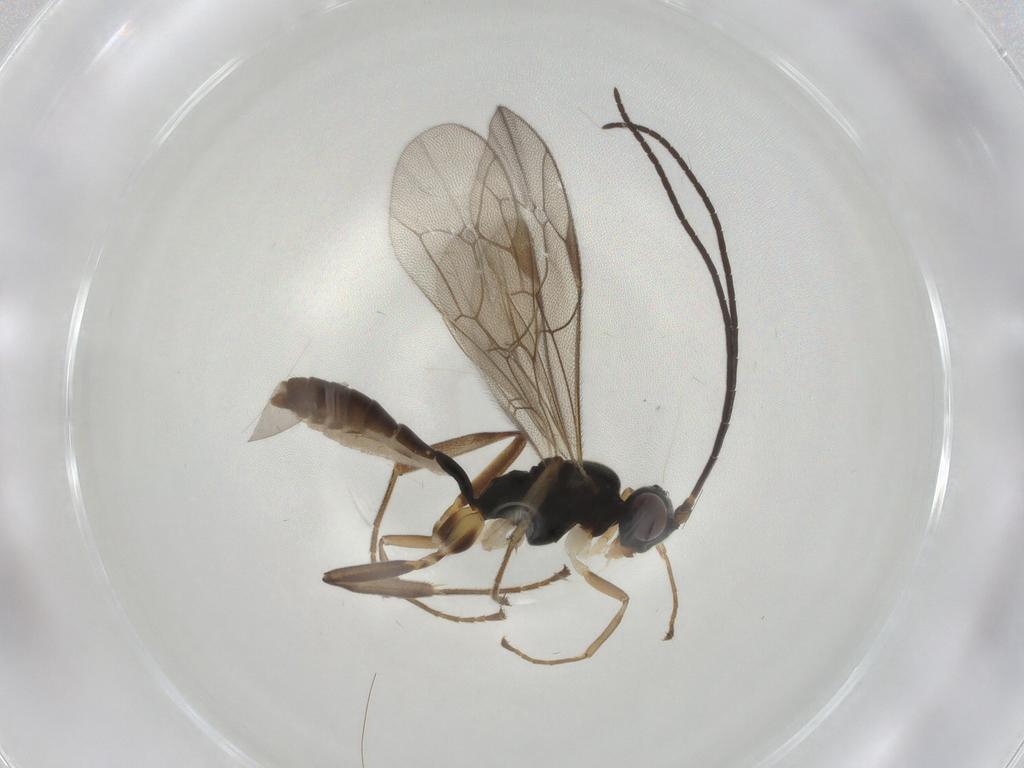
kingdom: Animalia
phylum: Arthropoda
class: Insecta
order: Hymenoptera
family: Ichneumonidae
